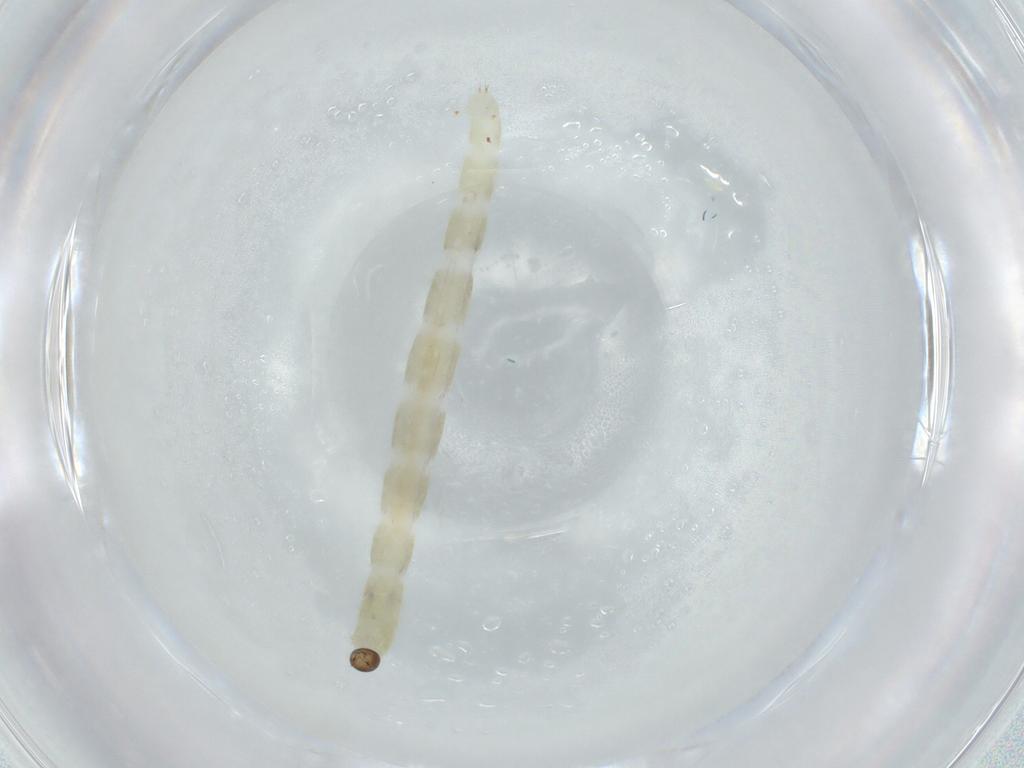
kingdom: Animalia
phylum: Arthropoda
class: Insecta
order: Diptera
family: Chironomidae
